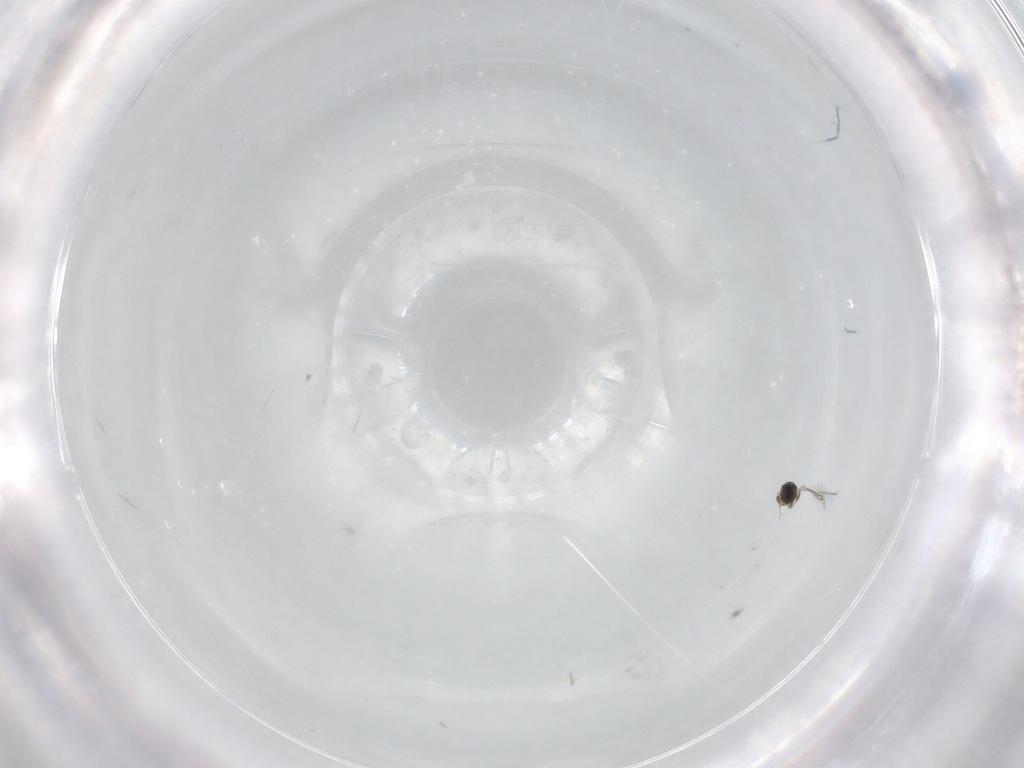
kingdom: Animalia
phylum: Arthropoda
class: Insecta
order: Hymenoptera
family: Mymaridae
